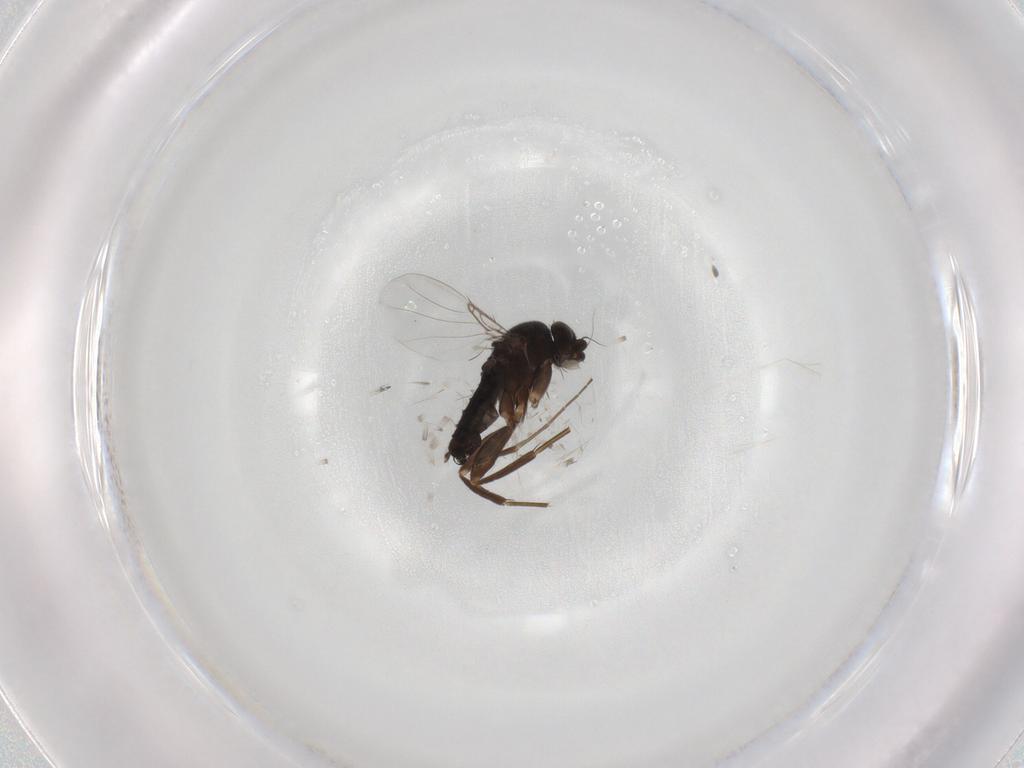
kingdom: Animalia
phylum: Arthropoda
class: Insecta
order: Diptera
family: Phoridae
